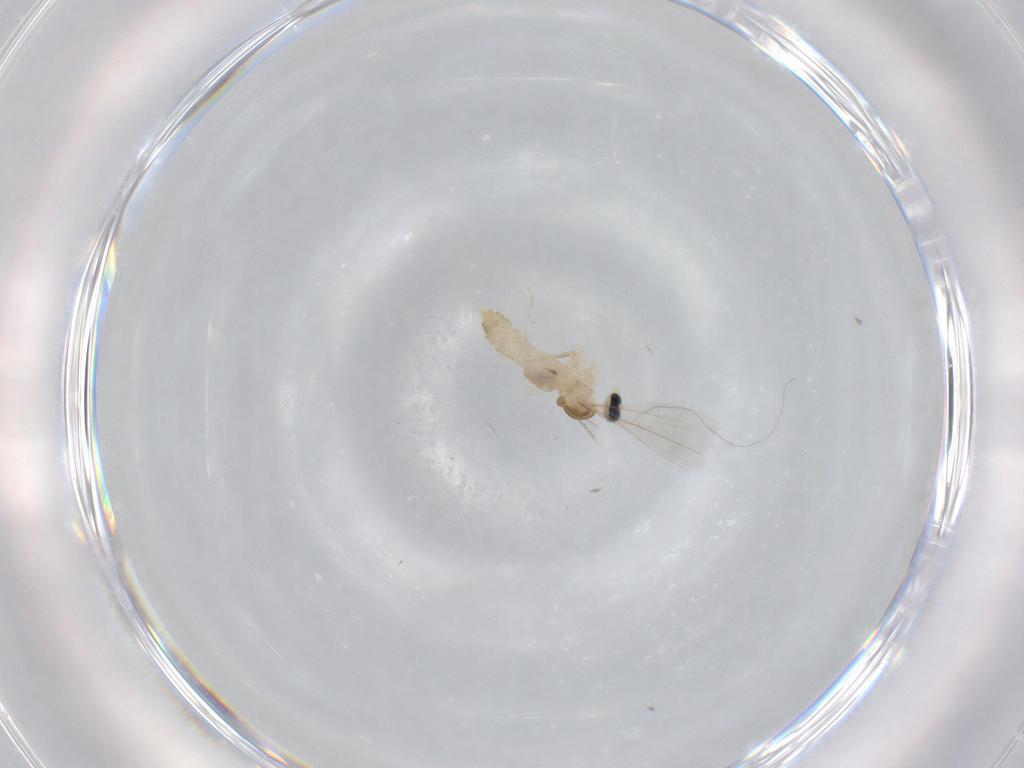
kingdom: Animalia
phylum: Arthropoda
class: Insecta
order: Diptera
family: Cecidomyiidae
